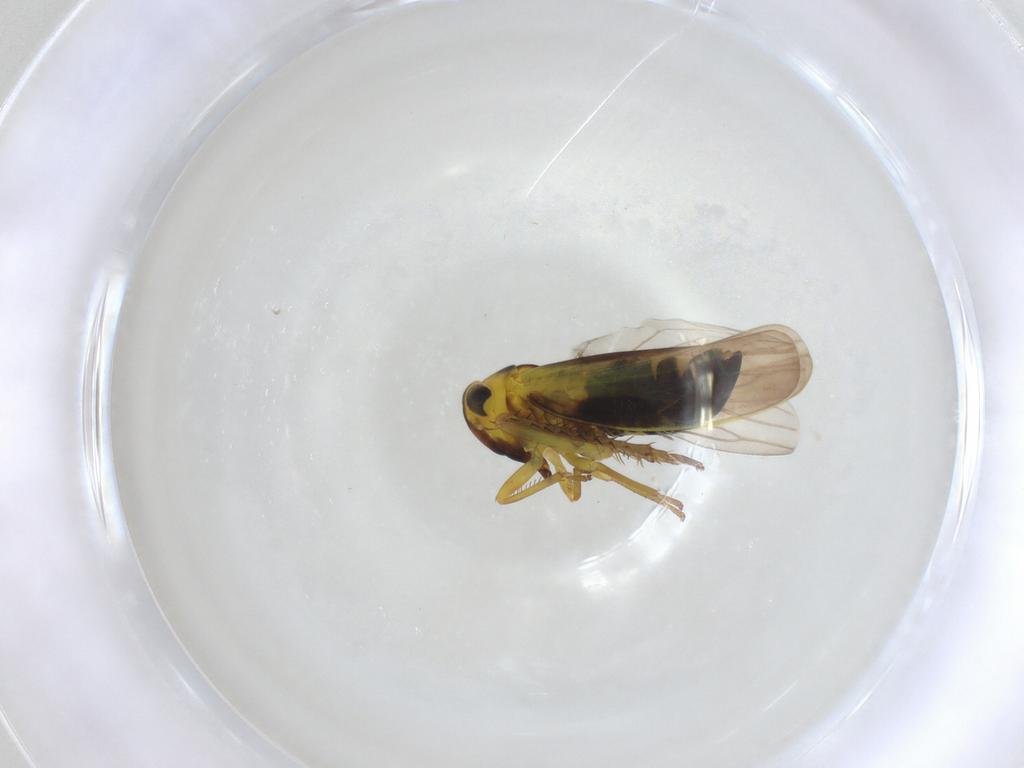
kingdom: Animalia
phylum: Arthropoda
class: Insecta
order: Hemiptera
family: Cicadellidae
